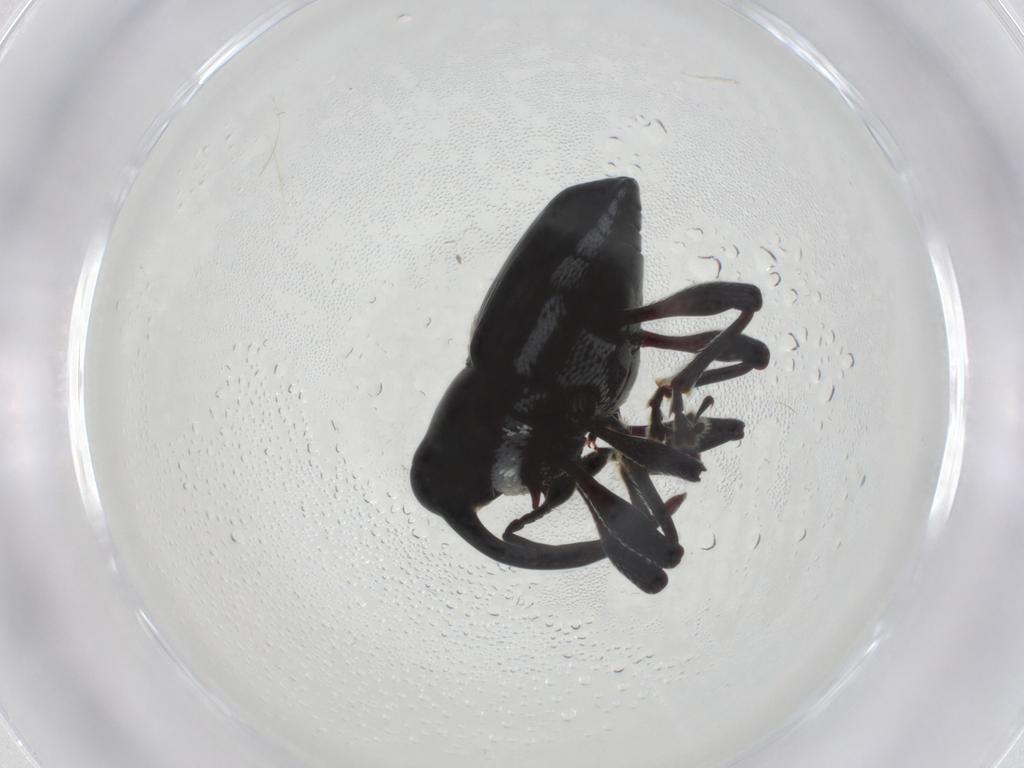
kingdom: Animalia
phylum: Arthropoda
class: Insecta
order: Coleoptera
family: Curculionidae
